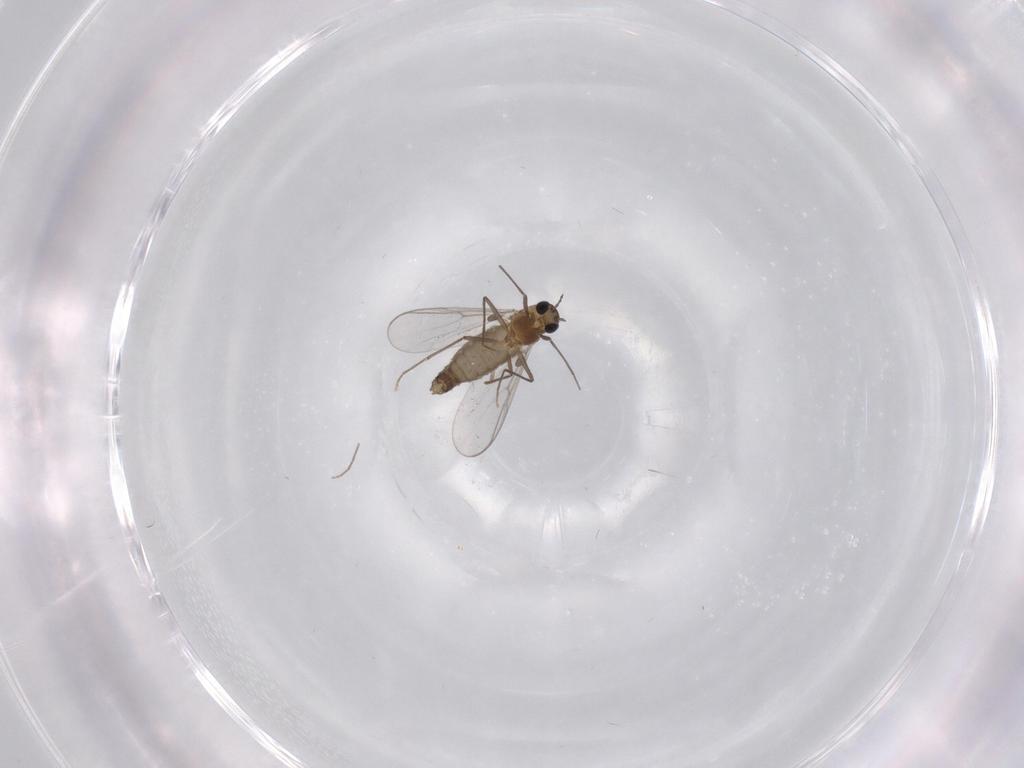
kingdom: Animalia
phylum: Arthropoda
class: Insecta
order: Diptera
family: Chironomidae
